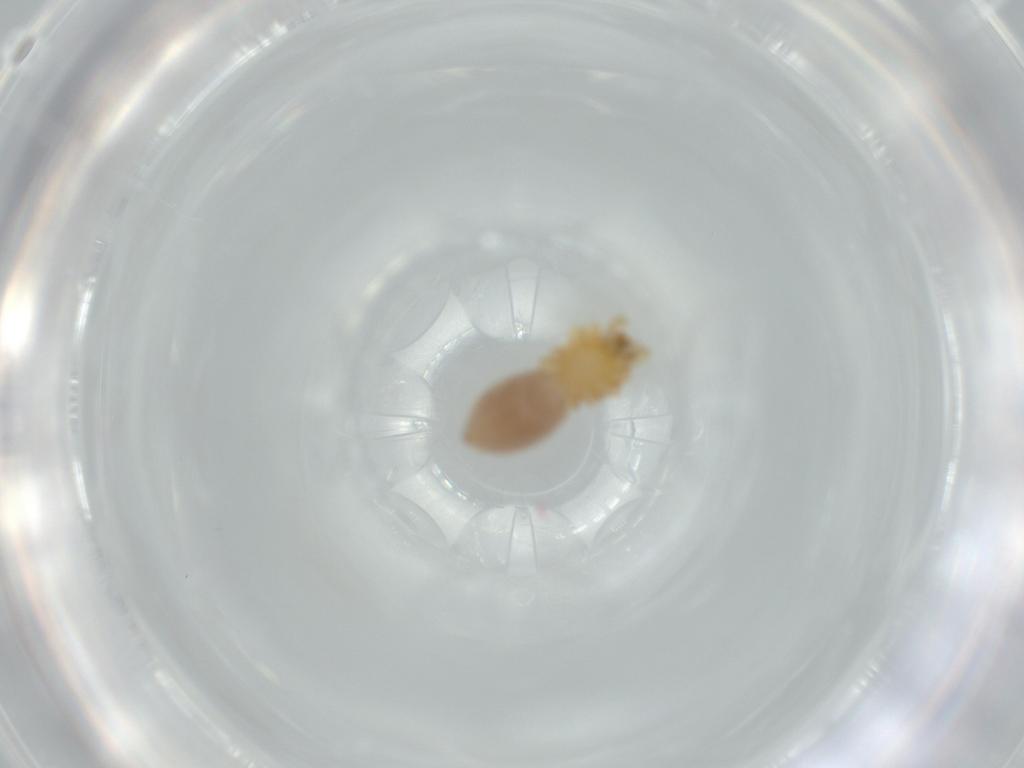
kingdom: Animalia
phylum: Arthropoda
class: Arachnida
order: Araneae
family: Oonopidae
